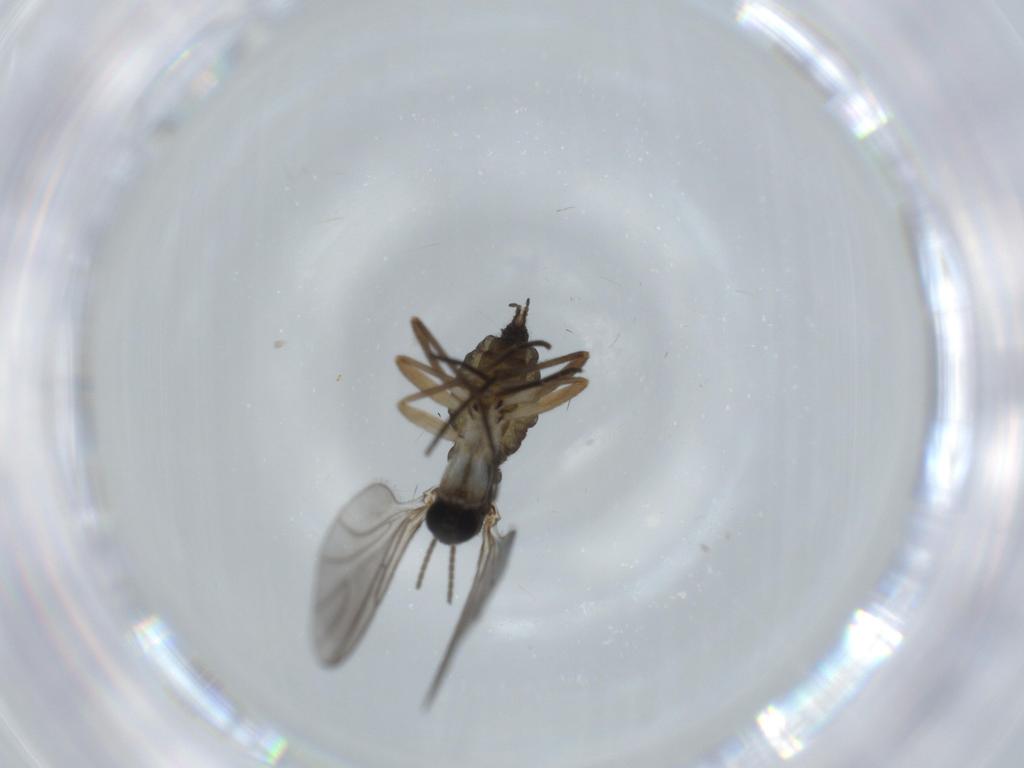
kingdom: Animalia
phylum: Arthropoda
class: Insecta
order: Diptera
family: Sciaridae
